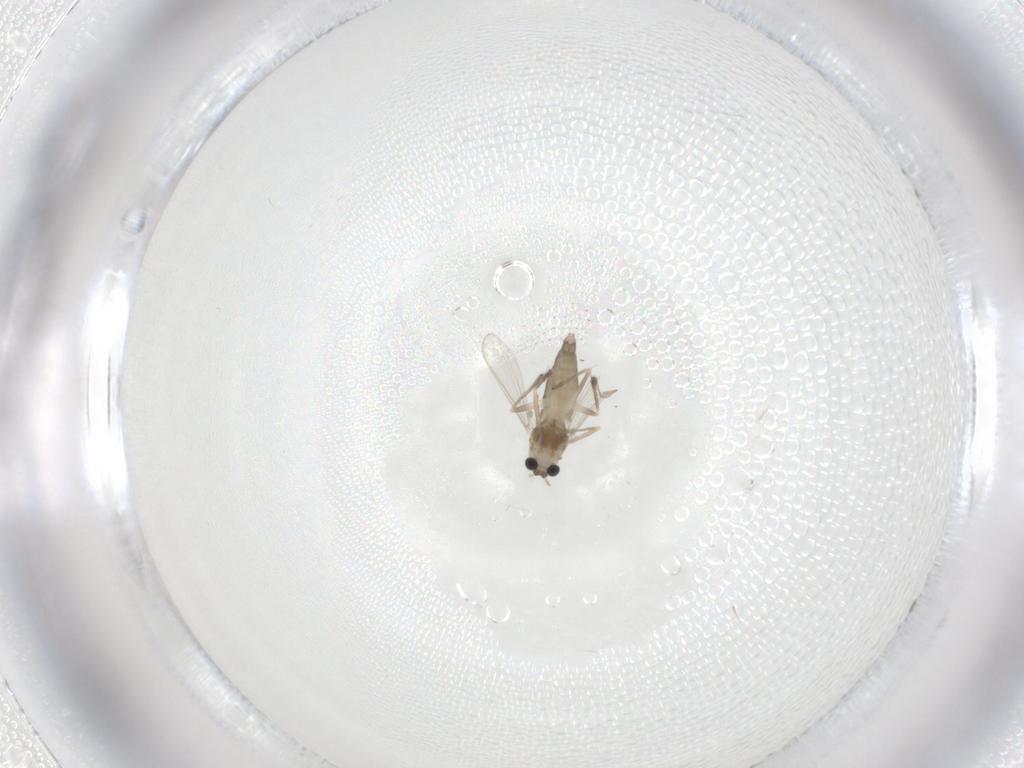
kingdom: Animalia
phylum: Arthropoda
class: Insecta
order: Diptera
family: Chironomidae
